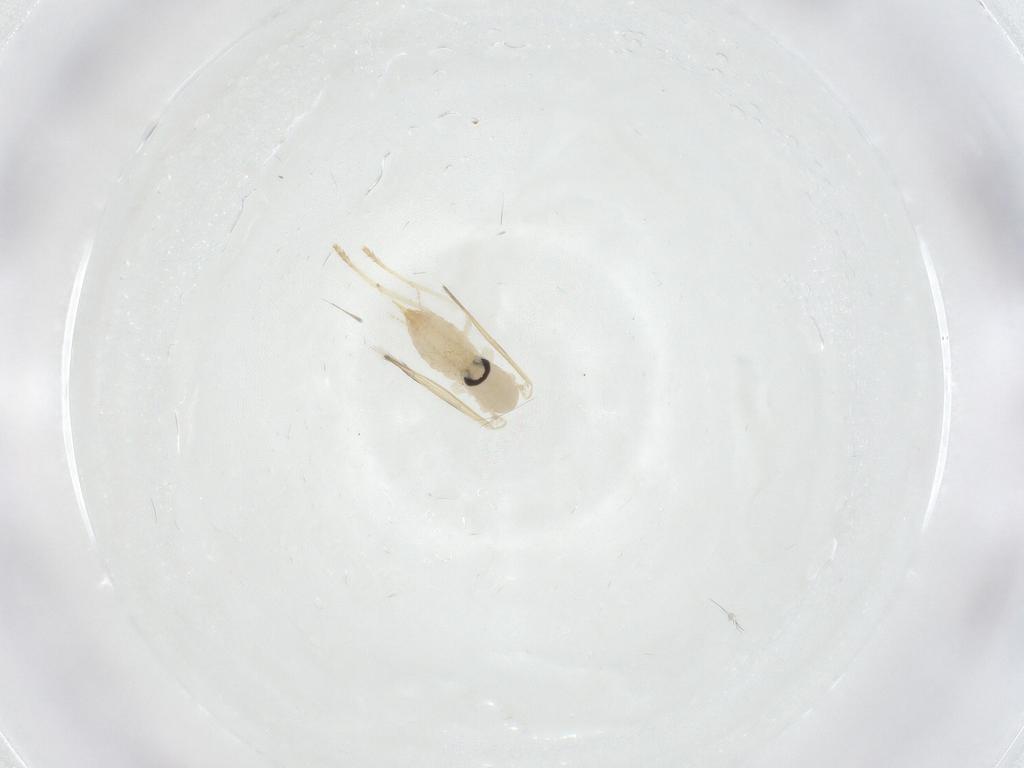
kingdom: Animalia
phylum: Arthropoda
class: Insecta
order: Diptera
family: Psychodidae
